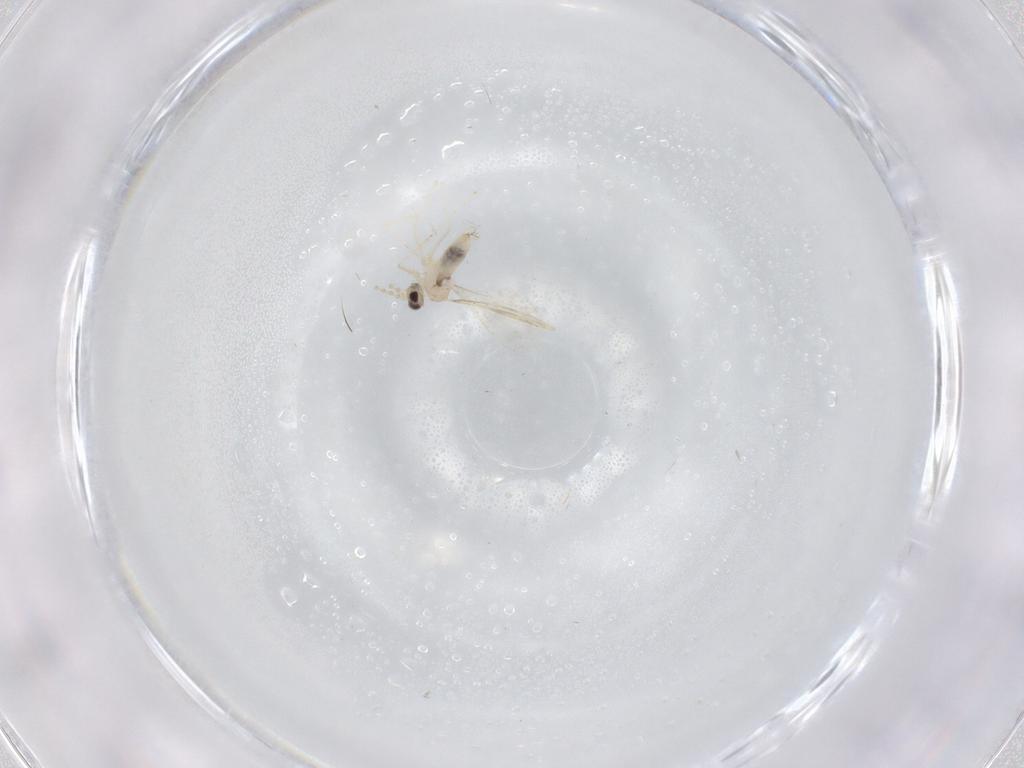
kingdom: Animalia
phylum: Arthropoda
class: Insecta
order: Diptera
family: Cecidomyiidae
